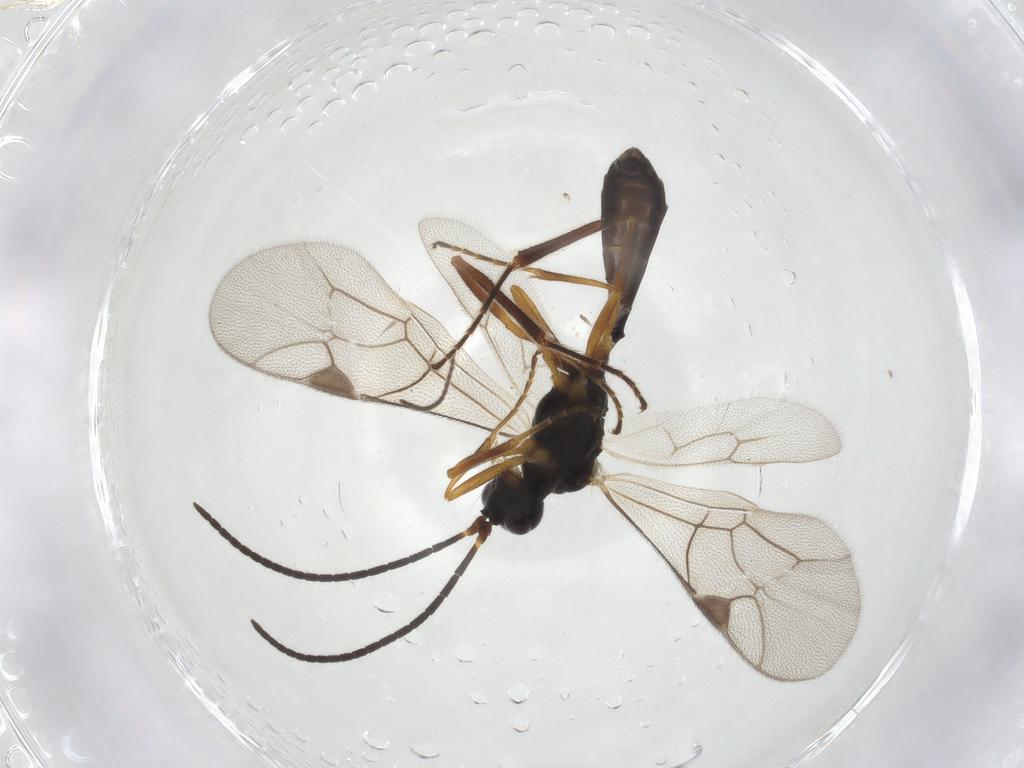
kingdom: Animalia
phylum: Arthropoda
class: Insecta
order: Hymenoptera
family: Ichneumonidae
